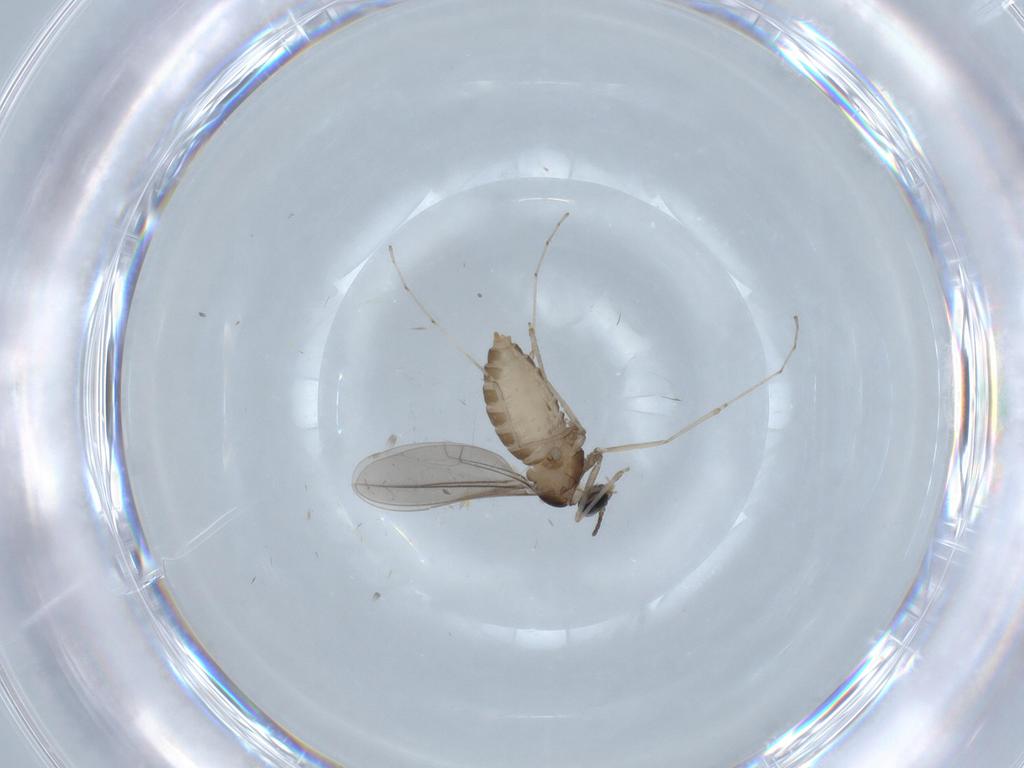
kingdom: Animalia
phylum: Arthropoda
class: Insecta
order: Diptera
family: Cecidomyiidae
